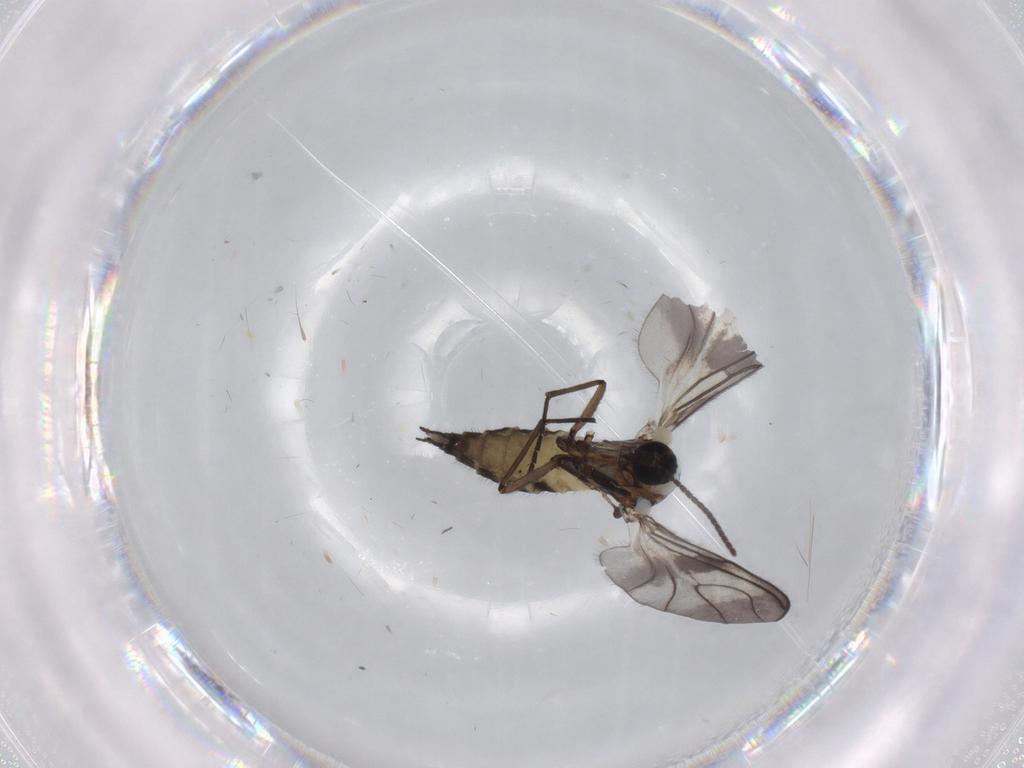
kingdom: Animalia
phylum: Arthropoda
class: Insecta
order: Diptera
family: Sciaridae
